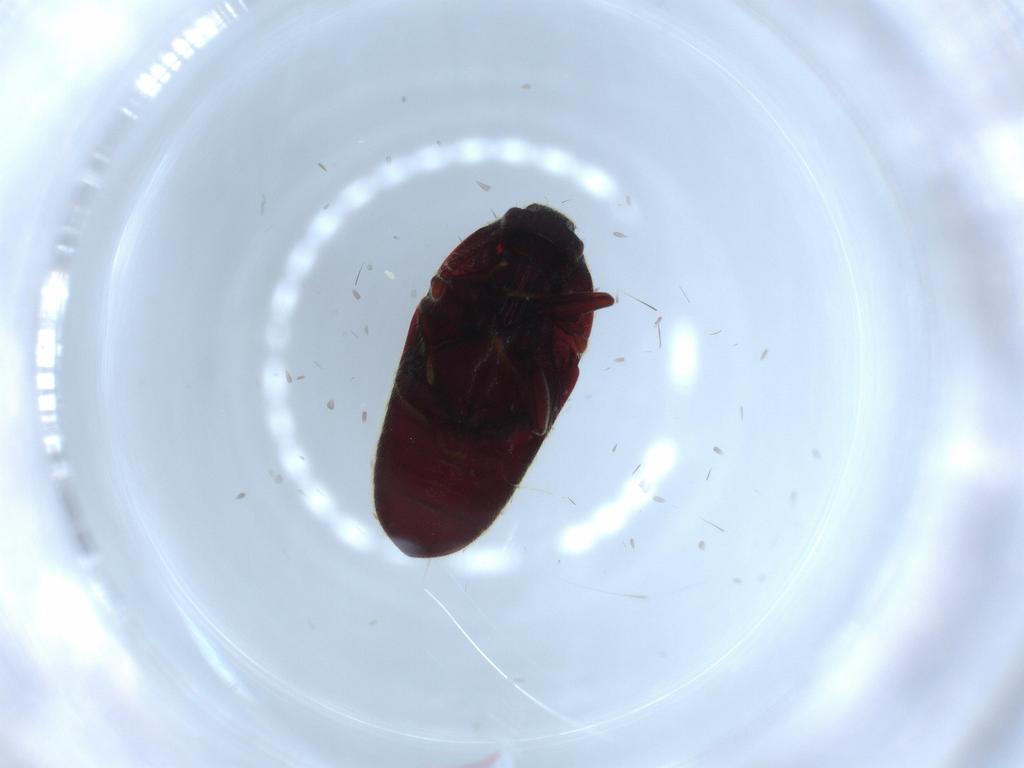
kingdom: Animalia
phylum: Arthropoda
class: Insecta
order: Coleoptera
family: Throscidae
